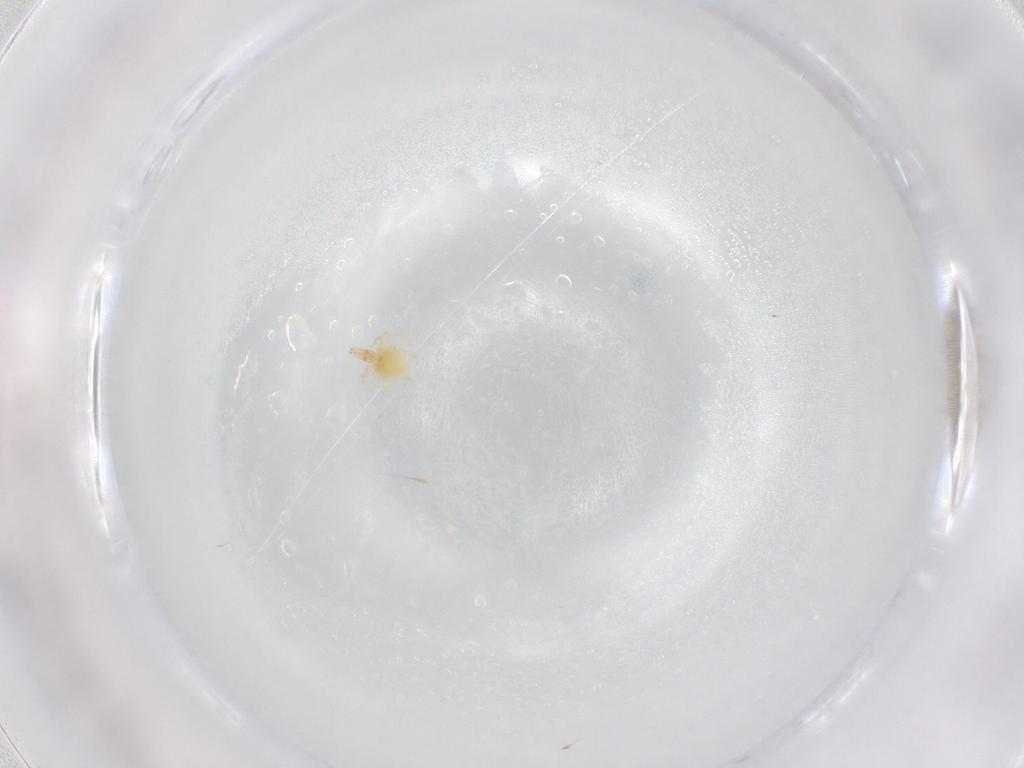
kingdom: Animalia
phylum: Arthropoda
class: Arachnida
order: Trombidiformes
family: Cunaxidae
